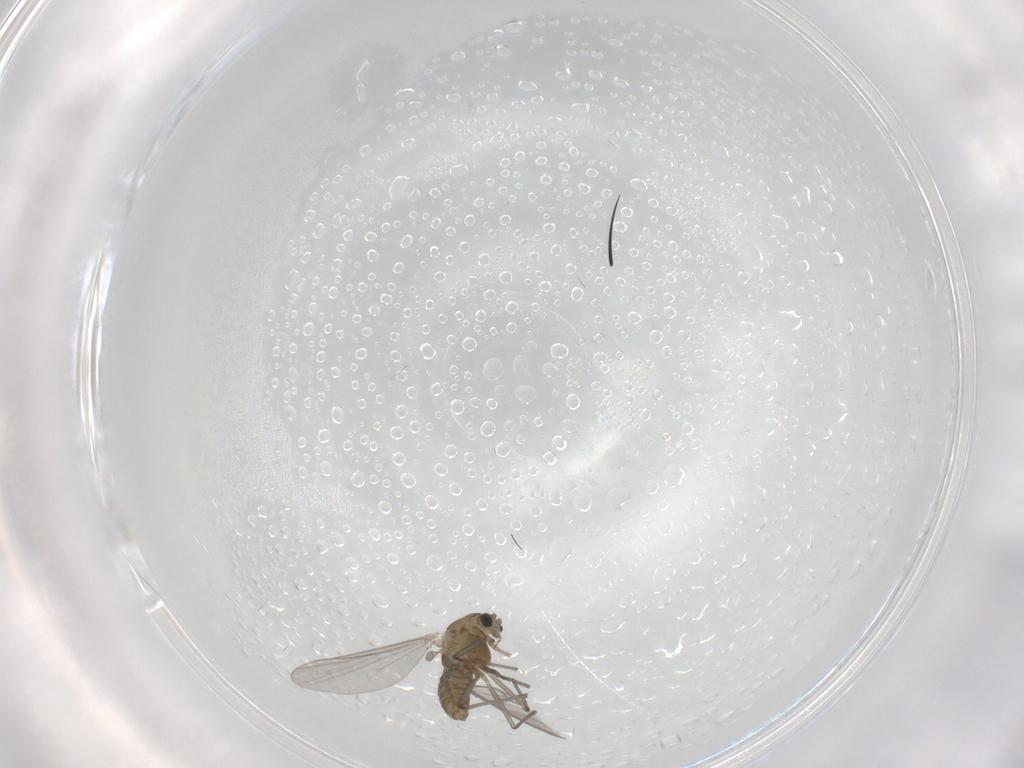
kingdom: Animalia
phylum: Arthropoda
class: Insecta
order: Diptera
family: Chironomidae
